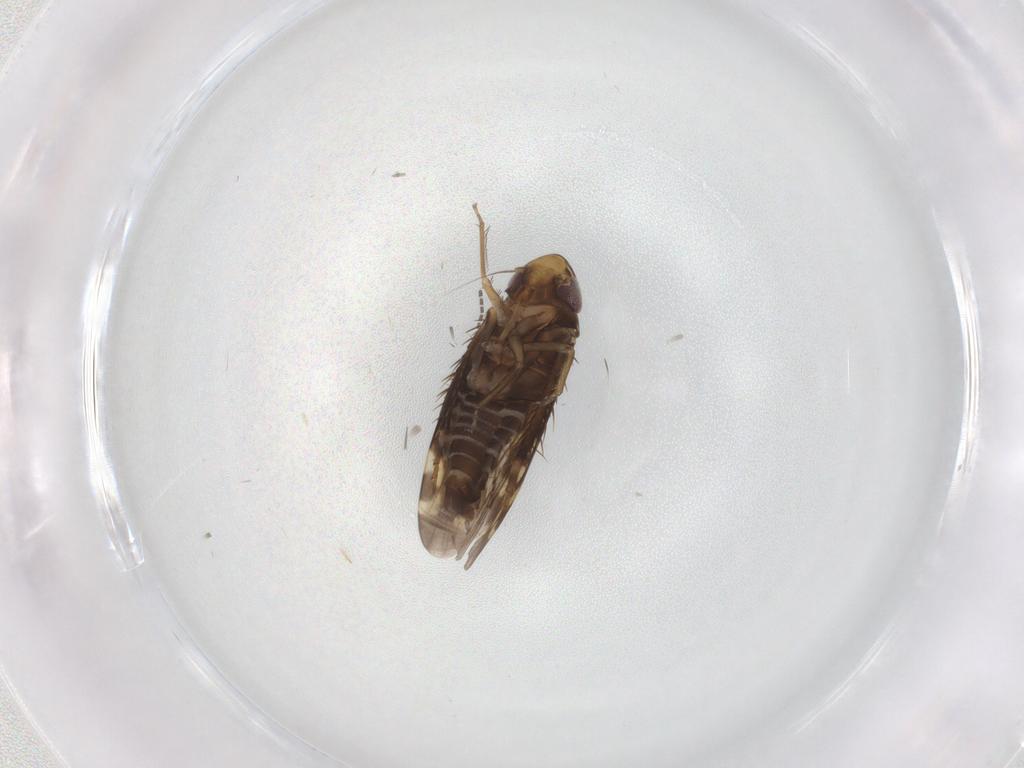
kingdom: Animalia
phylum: Arthropoda
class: Insecta
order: Hemiptera
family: Cicadellidae
